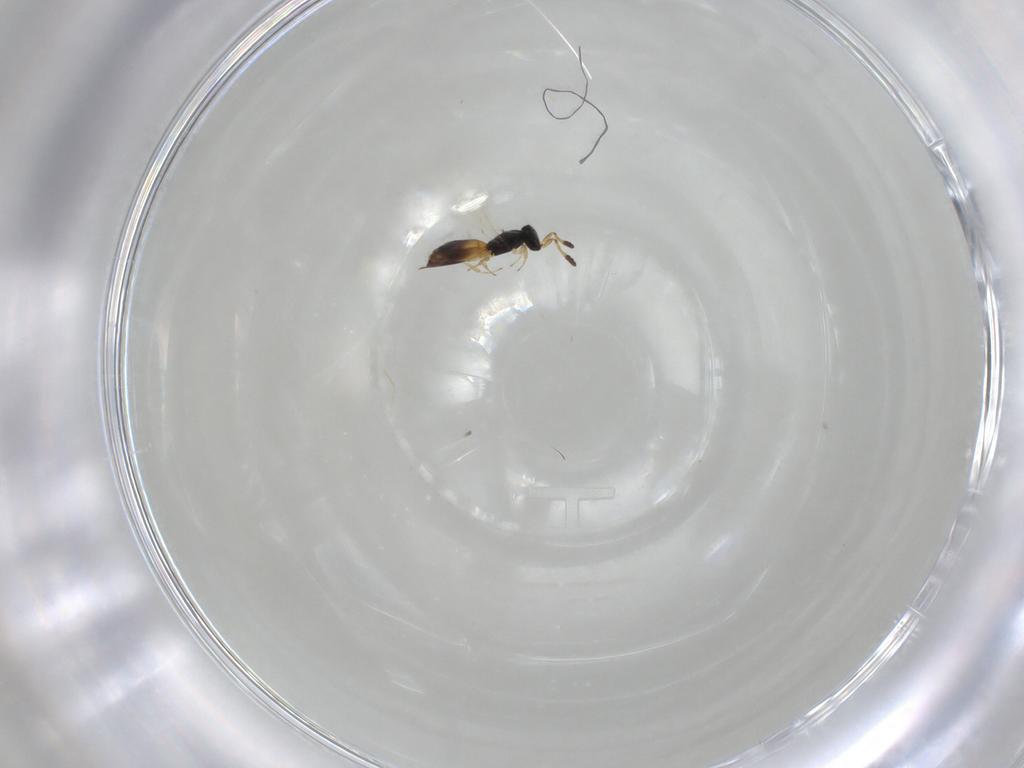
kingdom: Animalia
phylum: Arthropoda
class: Insecta
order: Hymenoptera
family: Scelionidae
